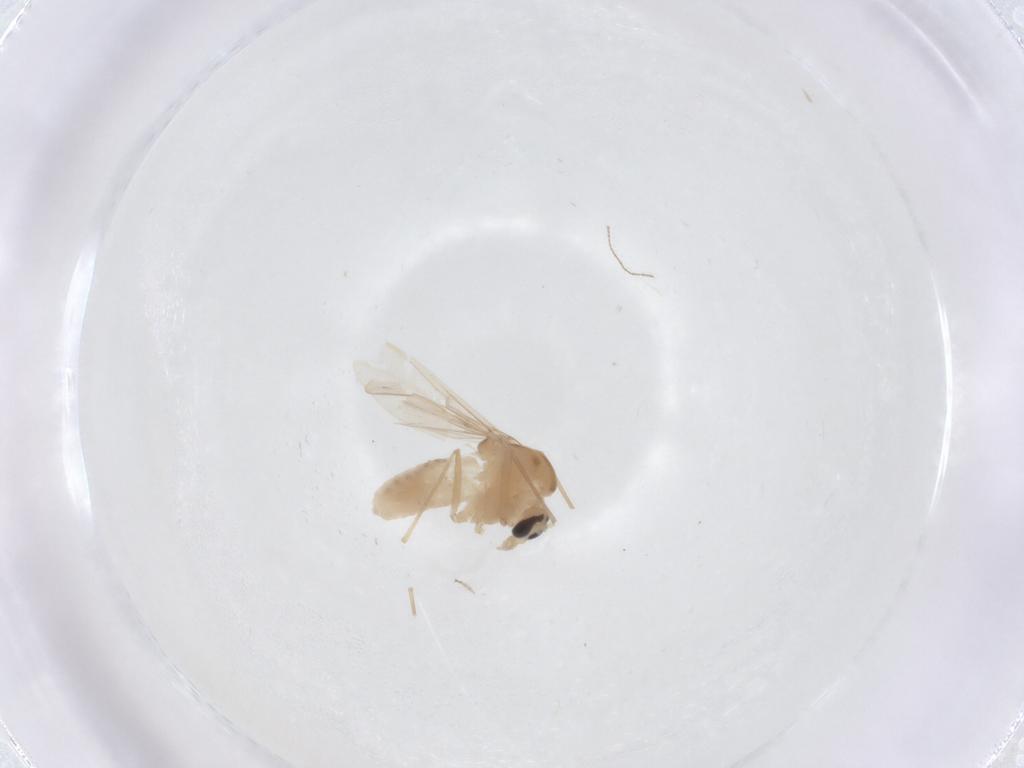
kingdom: Animalia
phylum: Arthropoda
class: Insecta
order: Diptera
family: Chironomidae
